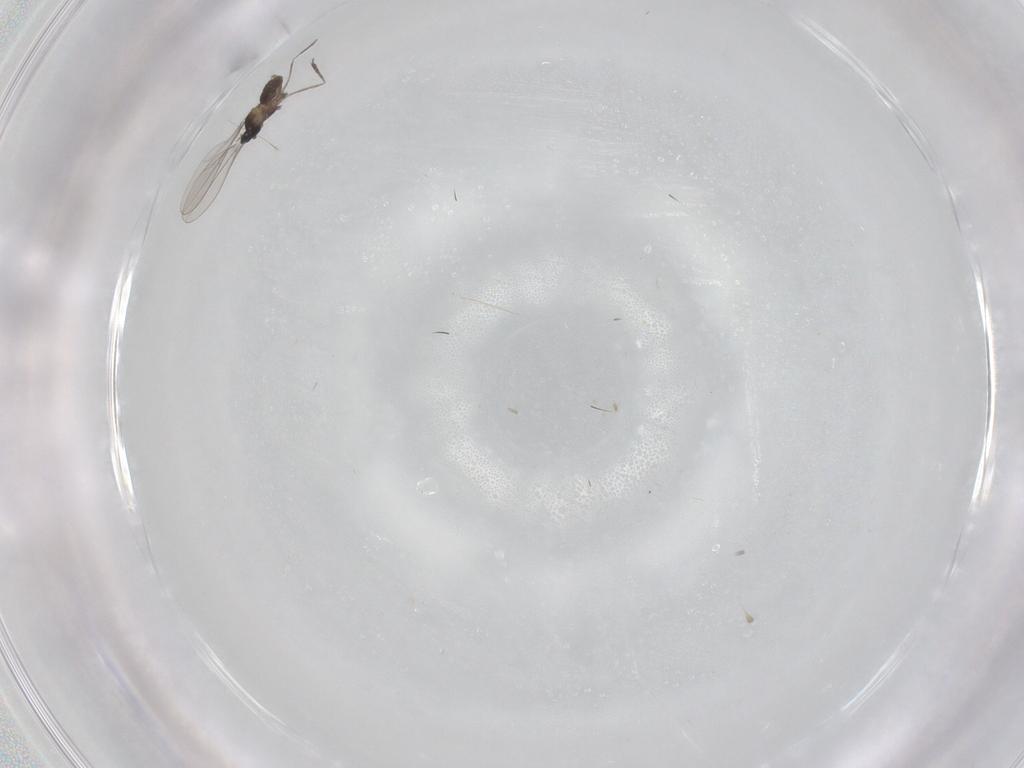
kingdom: Animalia
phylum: Arthropoda
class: Insecta
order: Diptera
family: Cecidomyiidae
